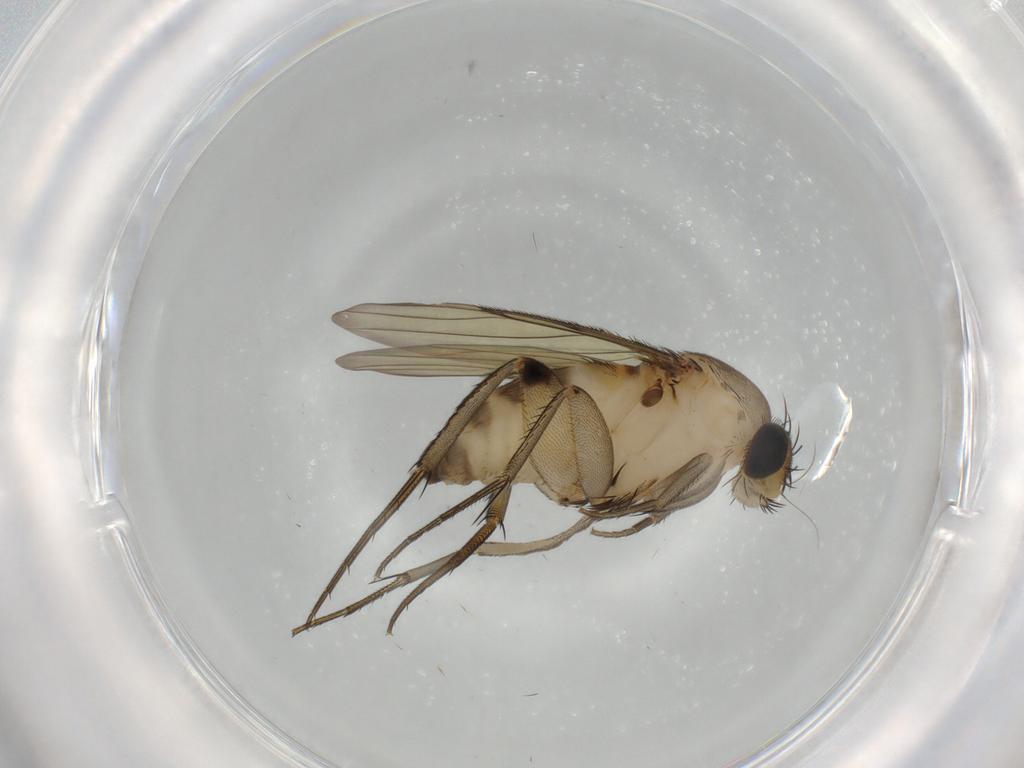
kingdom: Animalia
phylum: Arthropoda
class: Insecta
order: Diptera
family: Phoridae
